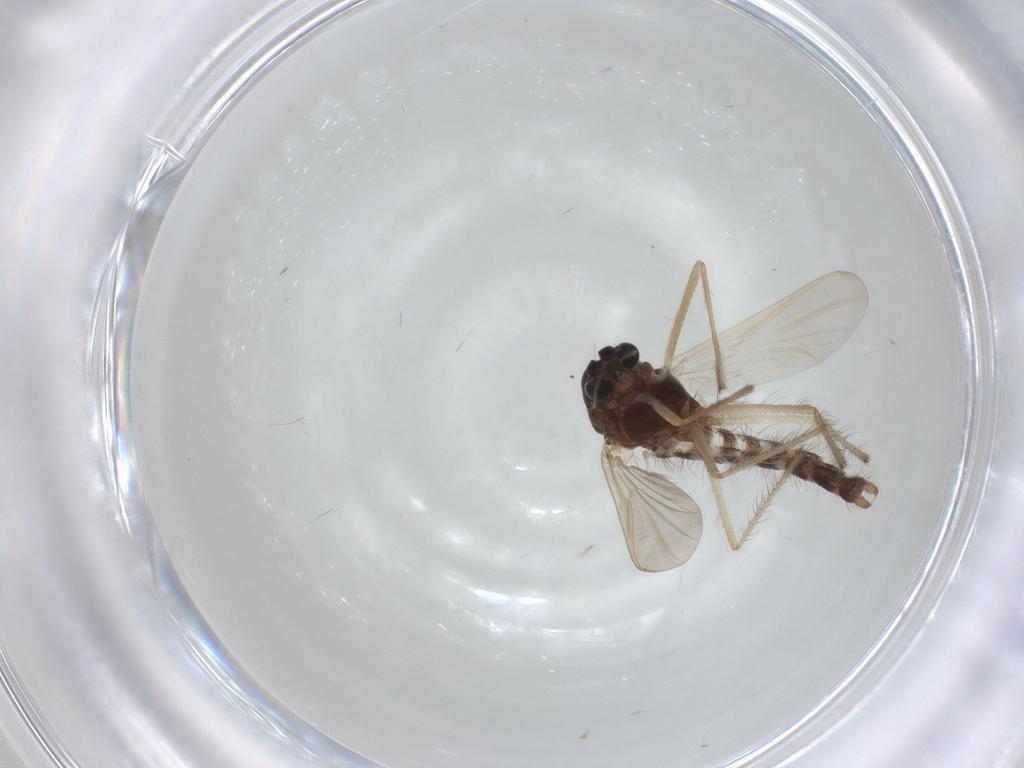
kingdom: Animalia
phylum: Arthropoda
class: Insecta
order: Diptera
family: Chironomidae
